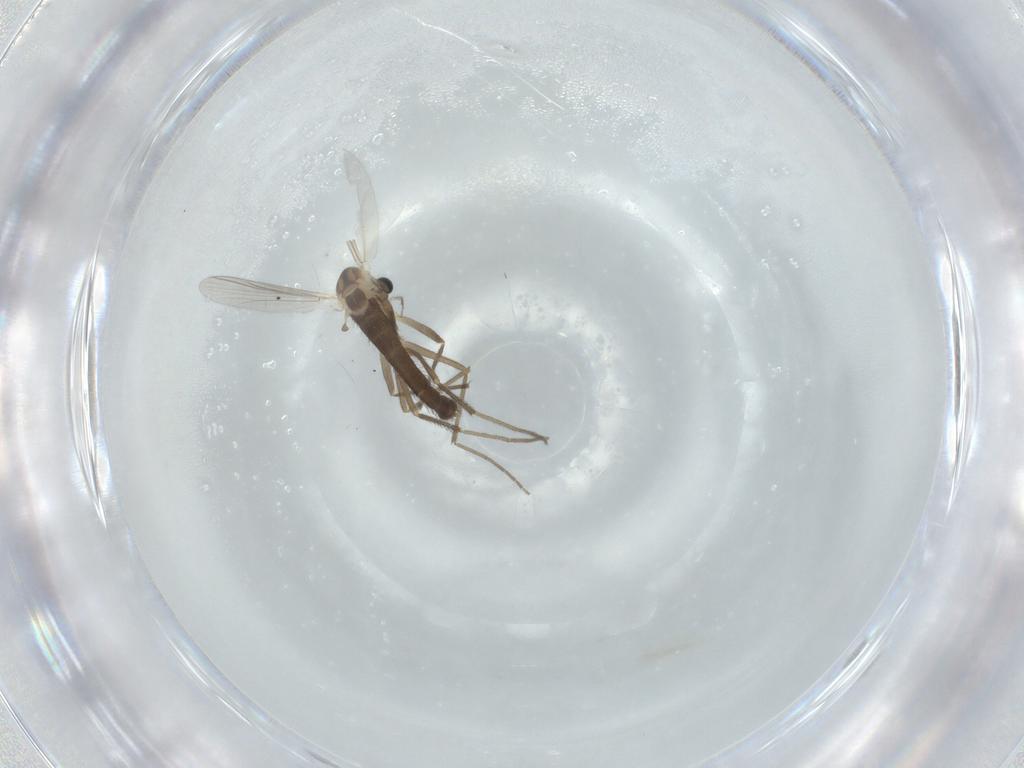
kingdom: Animalia
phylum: Arthropoda
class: Insecta
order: Diptera
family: Chironomidae
